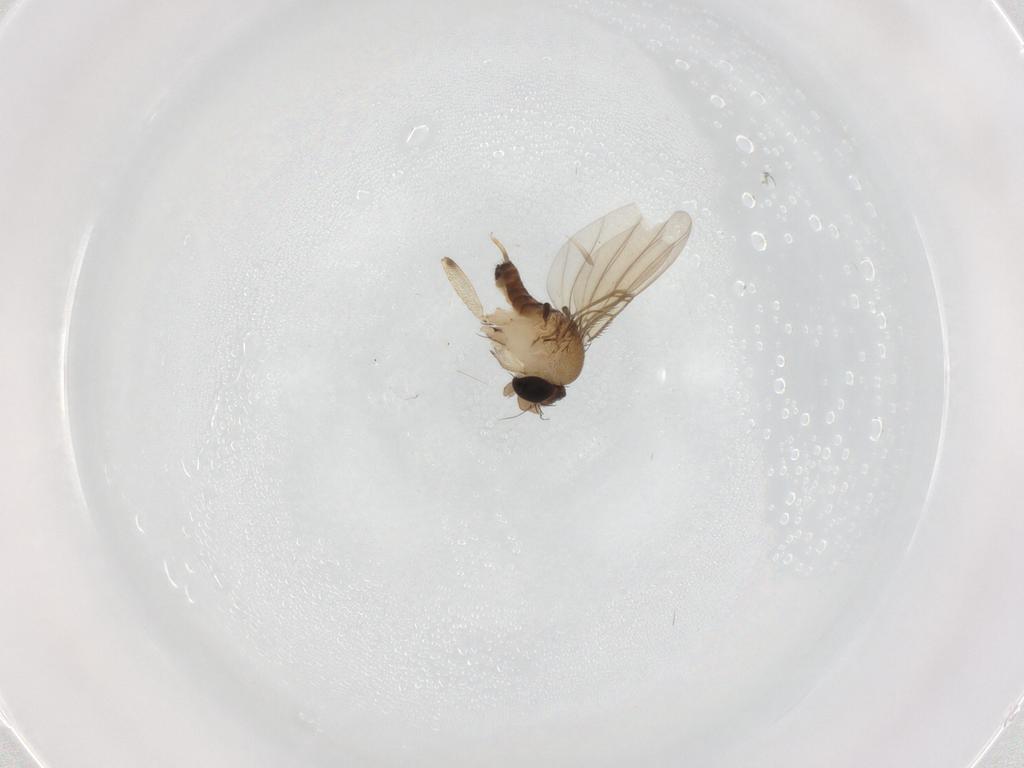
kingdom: Animalia
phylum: Arthropoda
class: Insecta
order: Diptera
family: Phoridae
